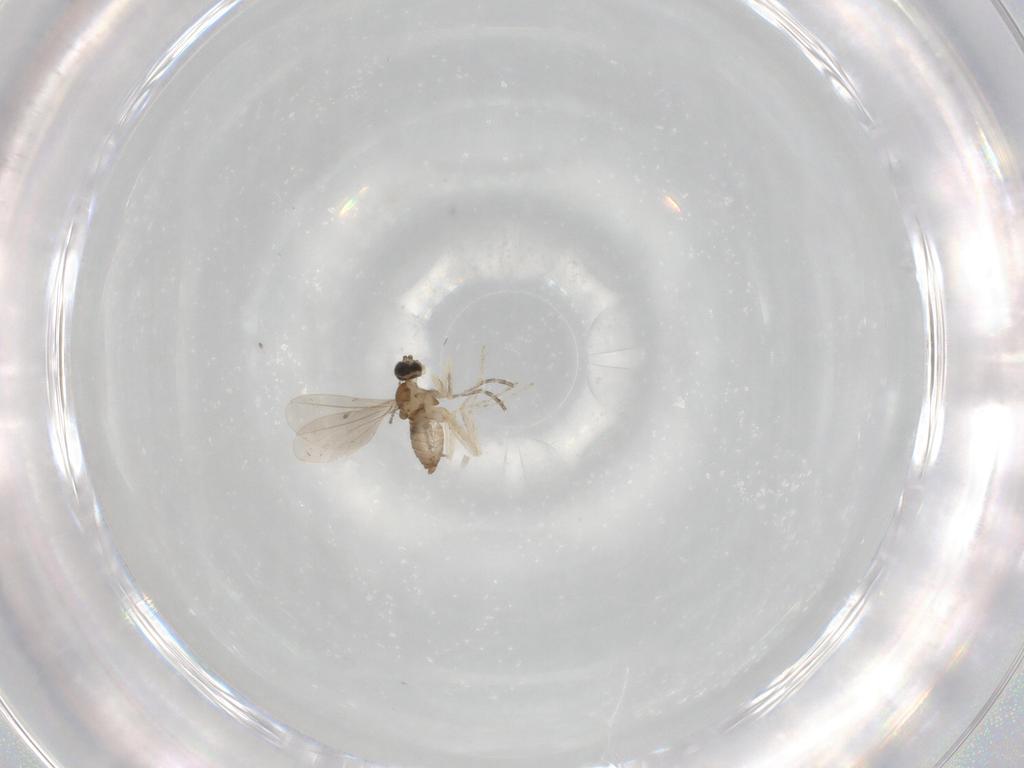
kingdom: Animalia
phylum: Arthropoda
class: Insecta
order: Diptera
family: Cecidomyiidae
